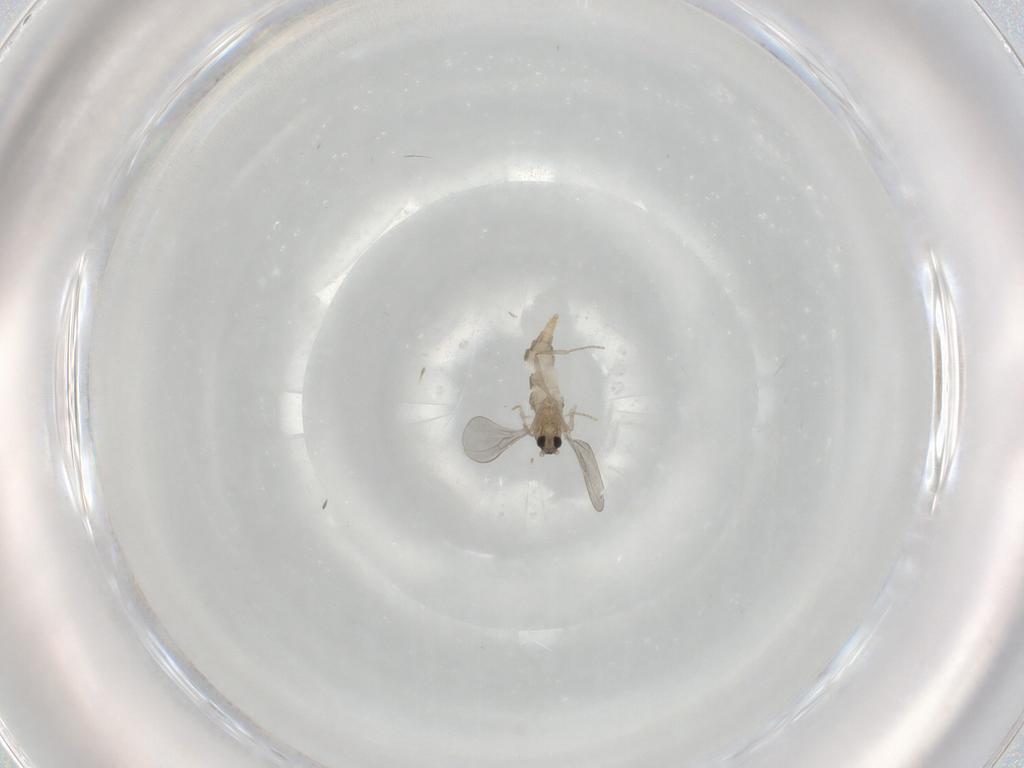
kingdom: Animalia
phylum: Arthropoda
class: Insecta
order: Diptera
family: Cecidomyiidae
